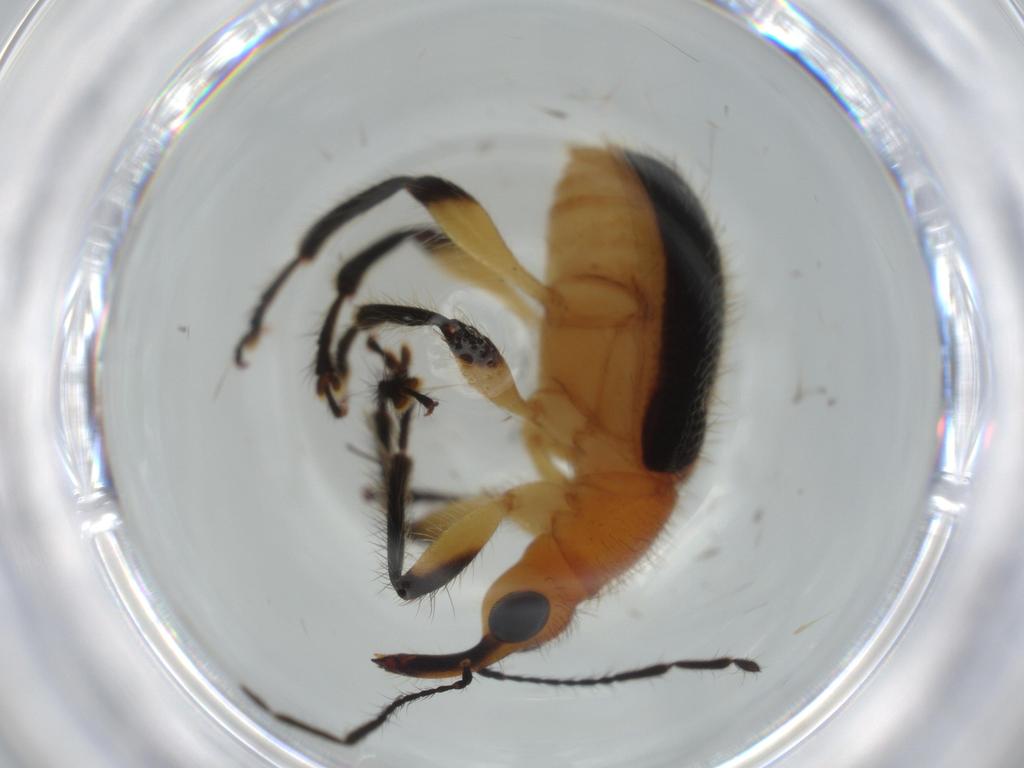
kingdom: Animalia
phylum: Arthropoda
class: Insecta
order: Coleoptera
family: Attelabidae
